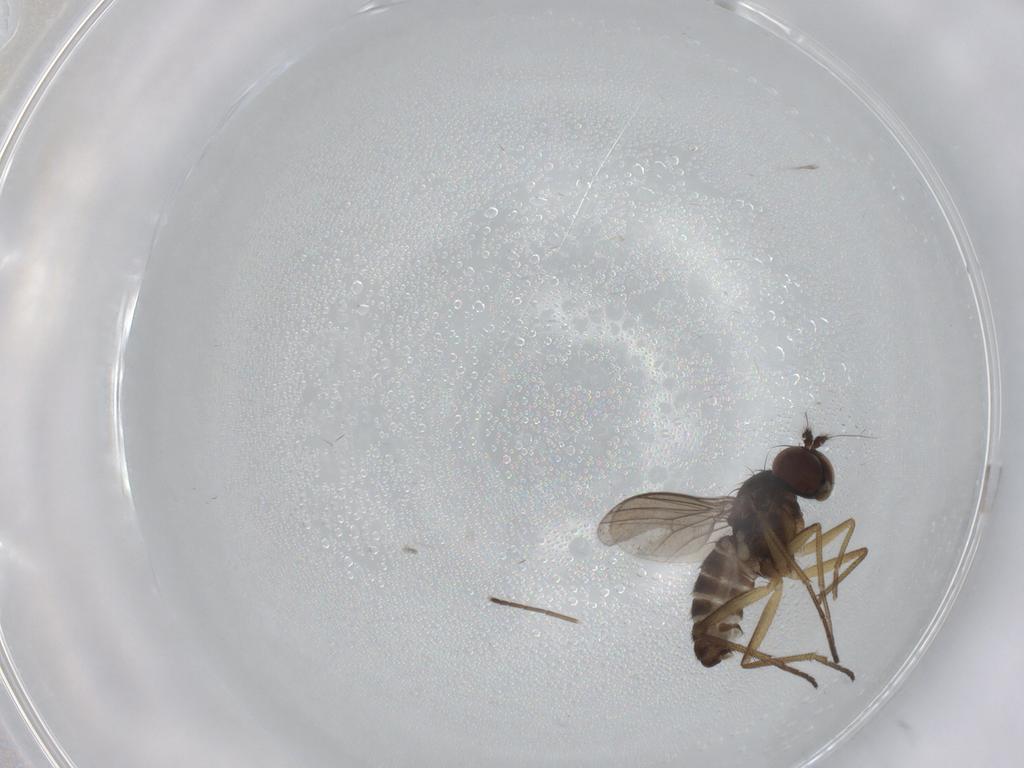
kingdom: Animalia
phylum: Arthropoda
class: Insecta
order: Diptera
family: Dolichopodidae
